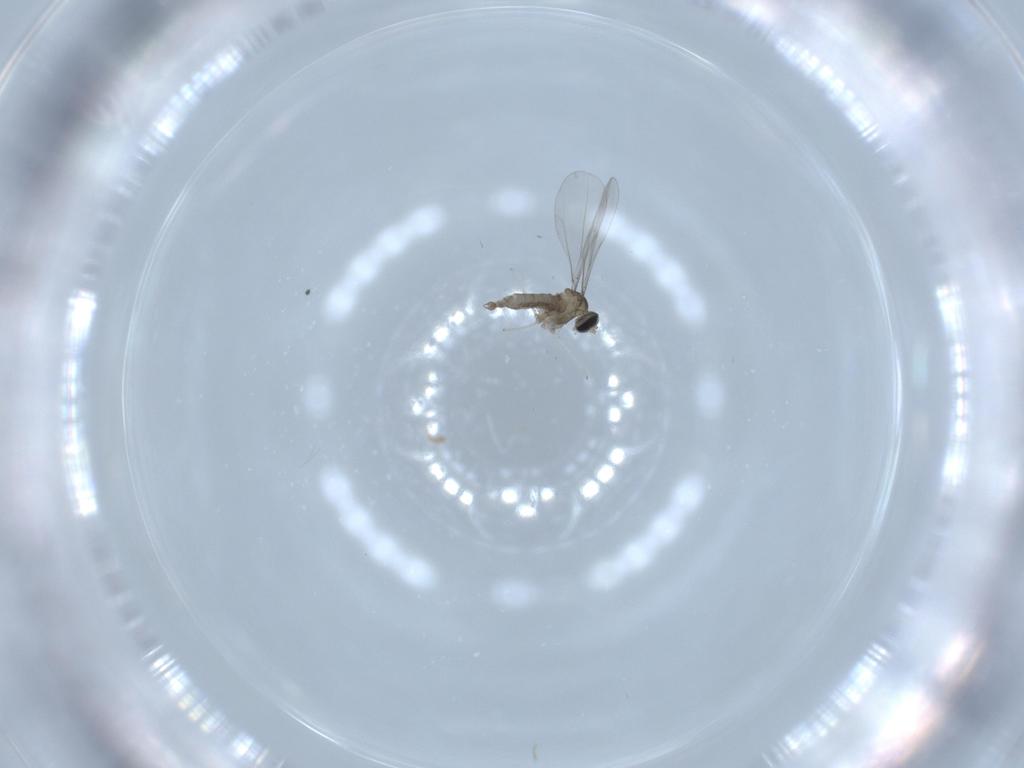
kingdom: Animalia
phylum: Arthropoda
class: Insecta
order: Diptera
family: Cecidomyiidae
